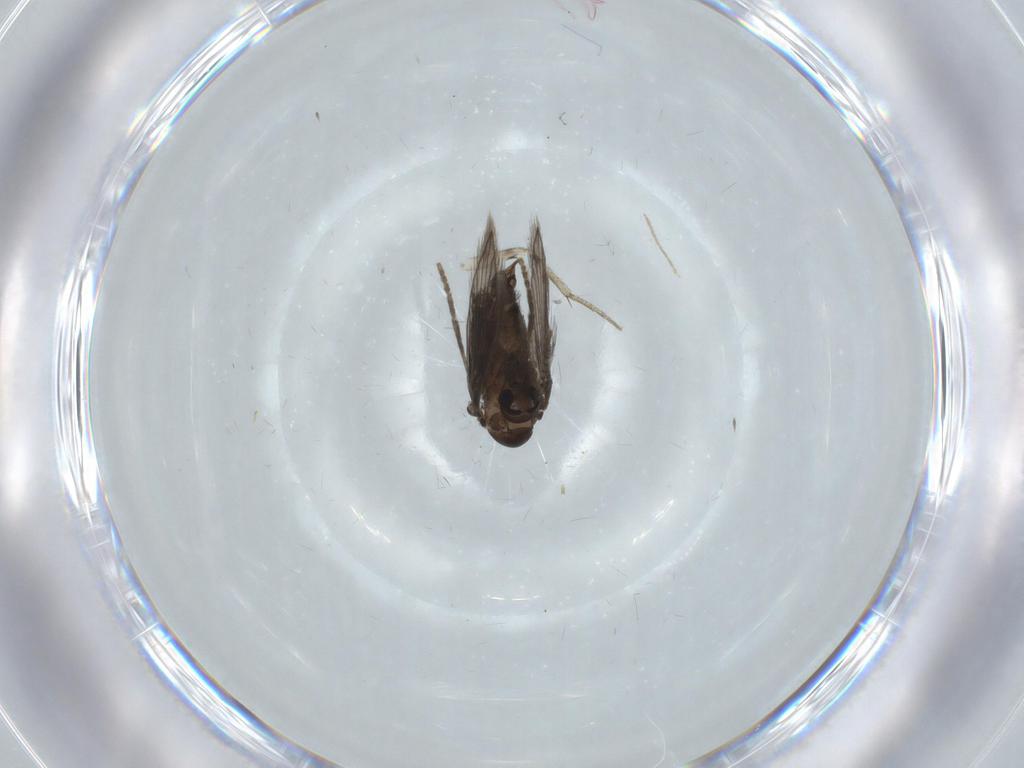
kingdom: Animalia
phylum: Arthropoda
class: Insecta
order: Diptera
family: Psychodidae
